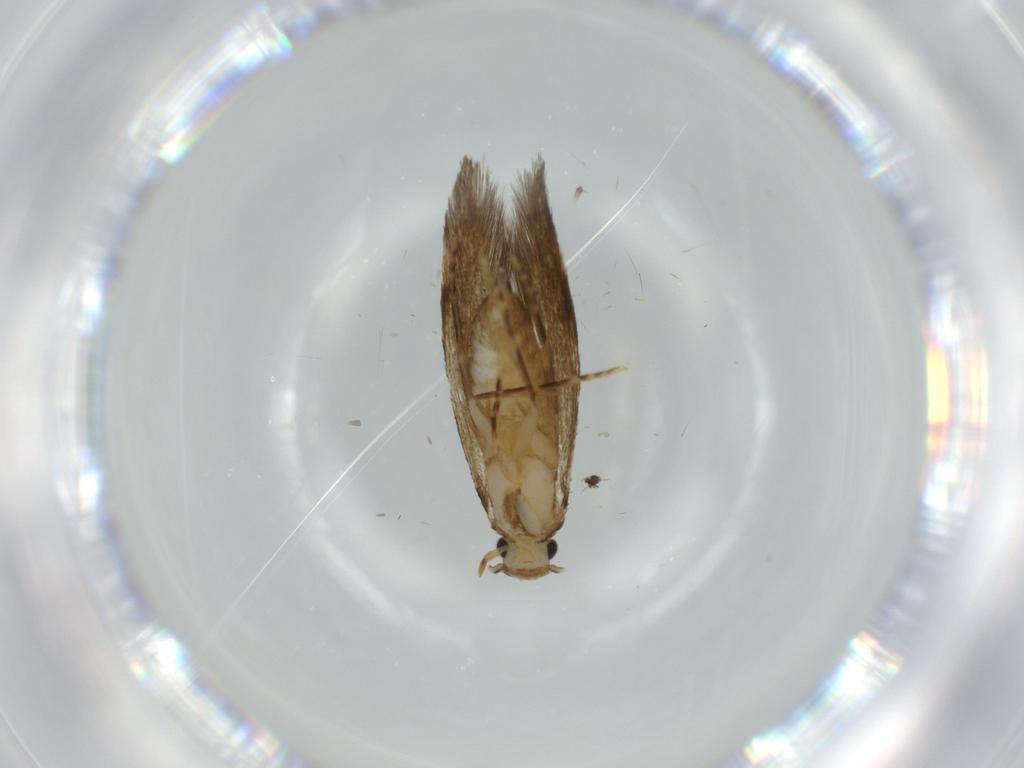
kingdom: Animalia
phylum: Arthropoda
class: Insecta
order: Lepidoptera
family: Tineidae
